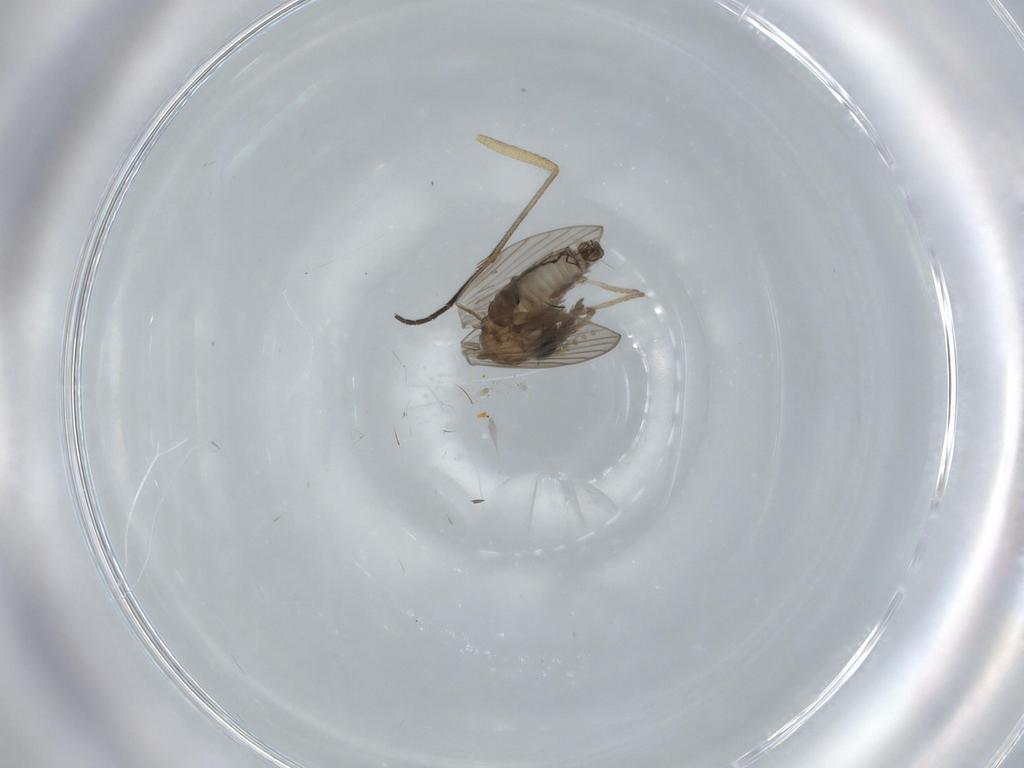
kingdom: Animalia
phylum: Arthropoda
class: Insecta
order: Diptera
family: Psychodidae
